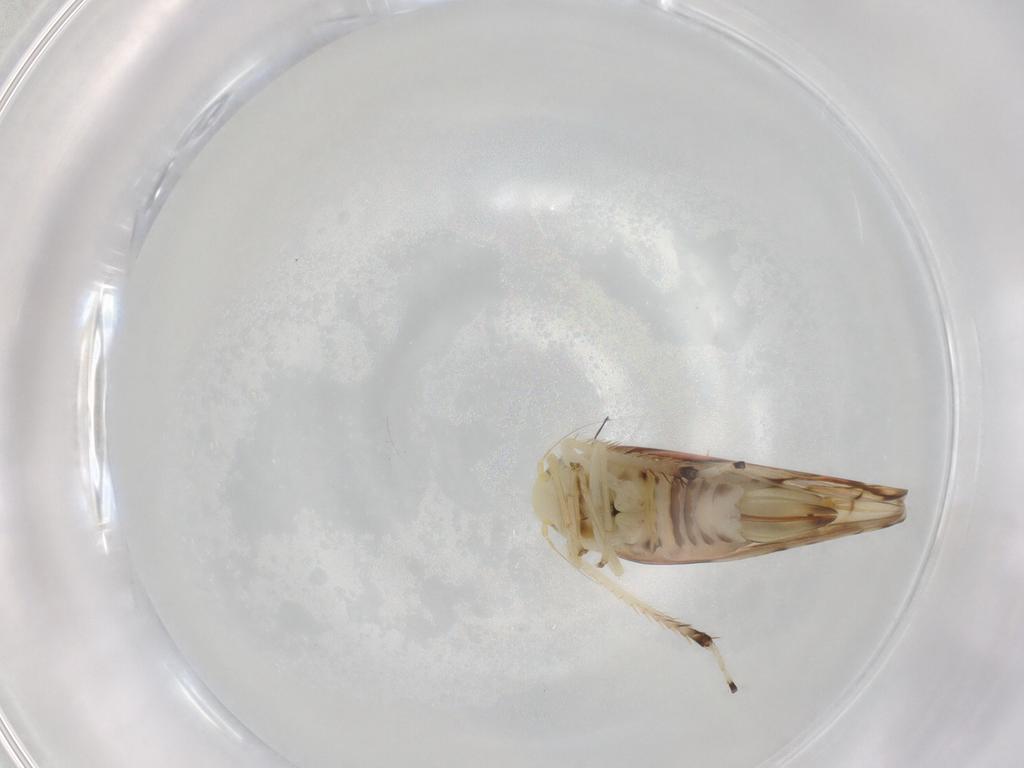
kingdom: Animalia
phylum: Arthropoda
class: Insecta
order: Hemiptera
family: Cicadellidae
